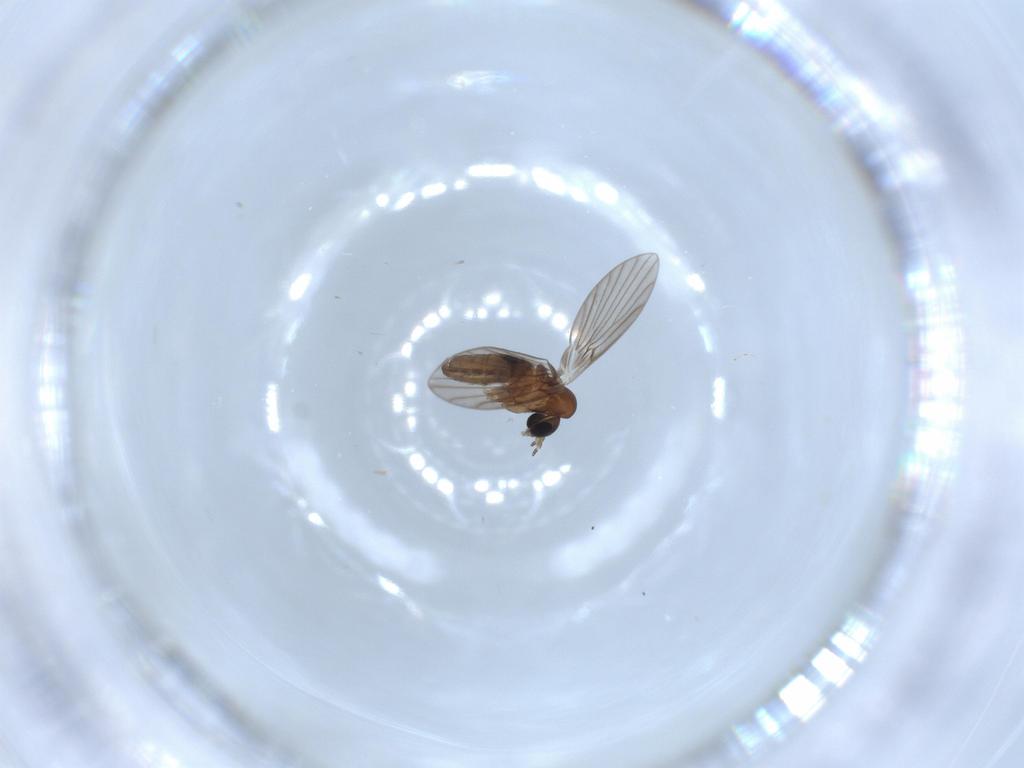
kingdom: Animalia
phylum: Arthropoda
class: Insecta
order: Diptera
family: Psychodidae
